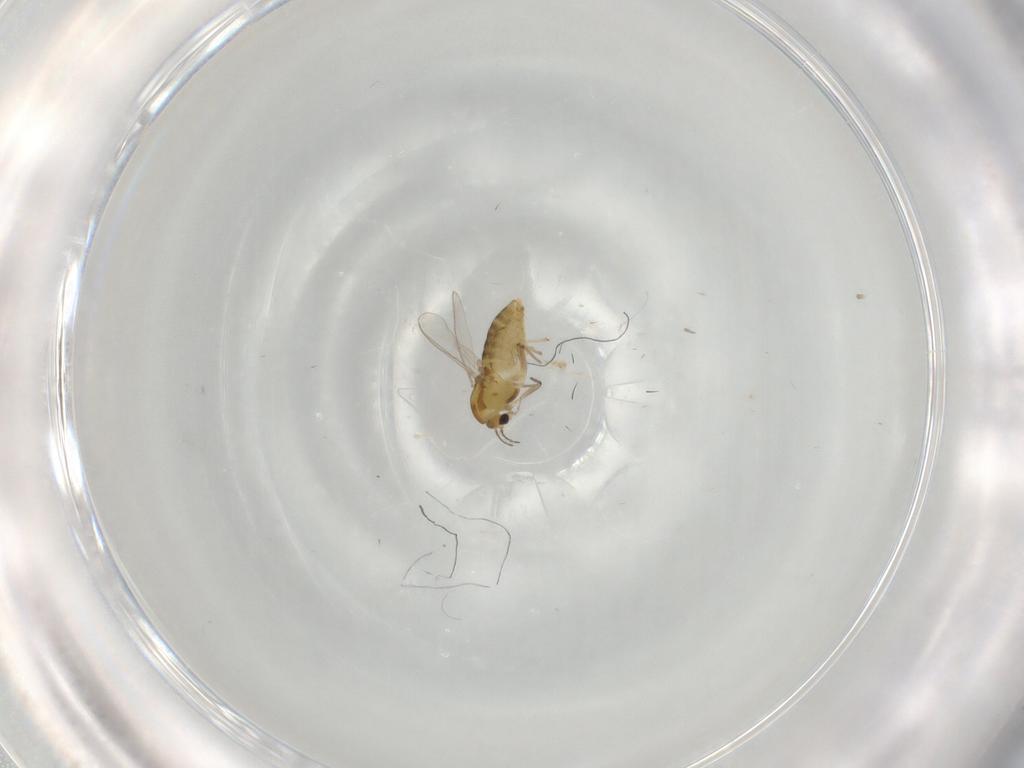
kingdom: Animalia
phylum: Arthropoda
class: Insecta
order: Diptera
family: Chironomidae
